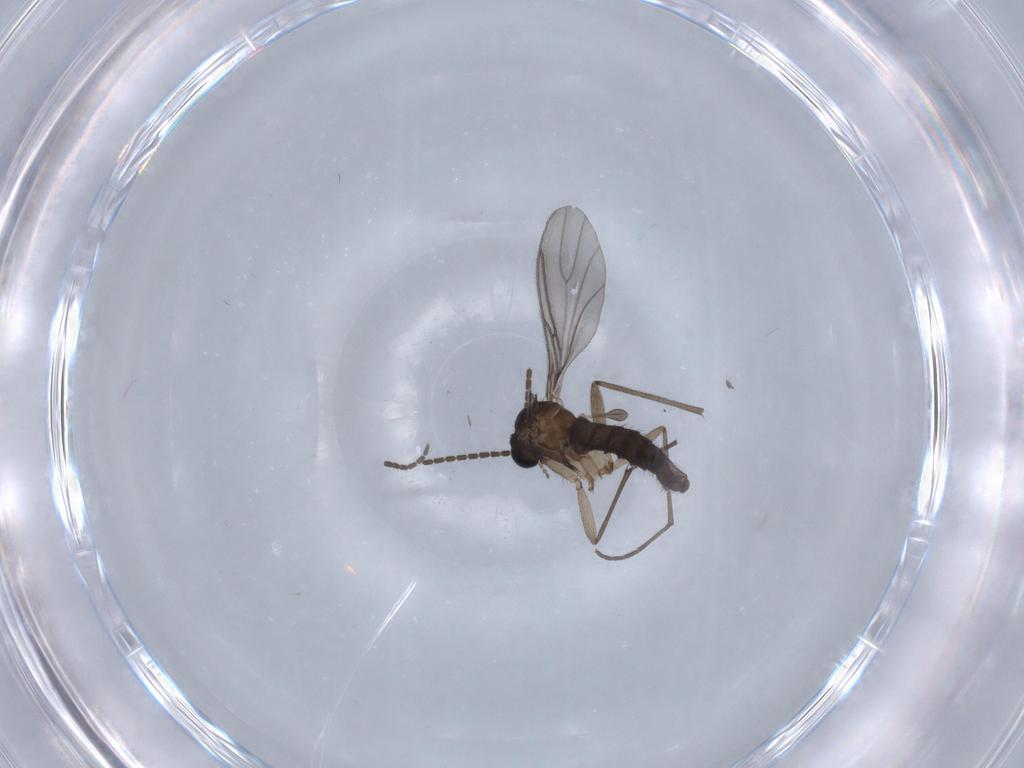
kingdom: Animalia
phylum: Arthropoda
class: Insecta
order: Diptera
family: Sciaridae
